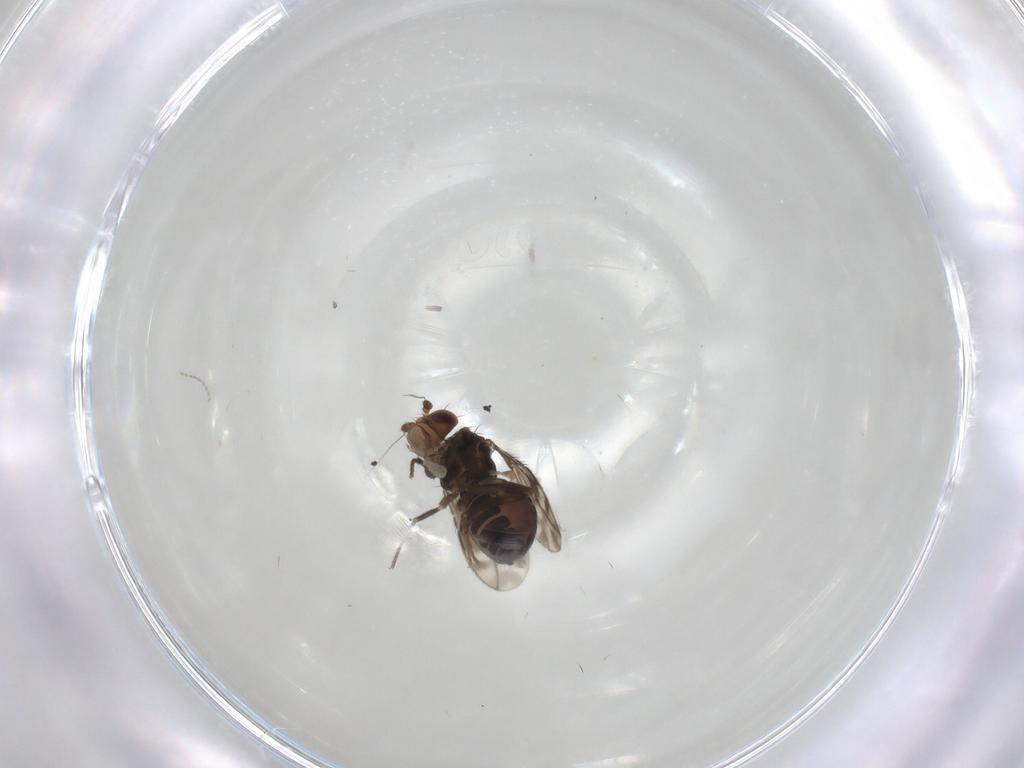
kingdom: Animalia
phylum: Arthropoda
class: Insecta
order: Diptera
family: Sphaeroceridae
